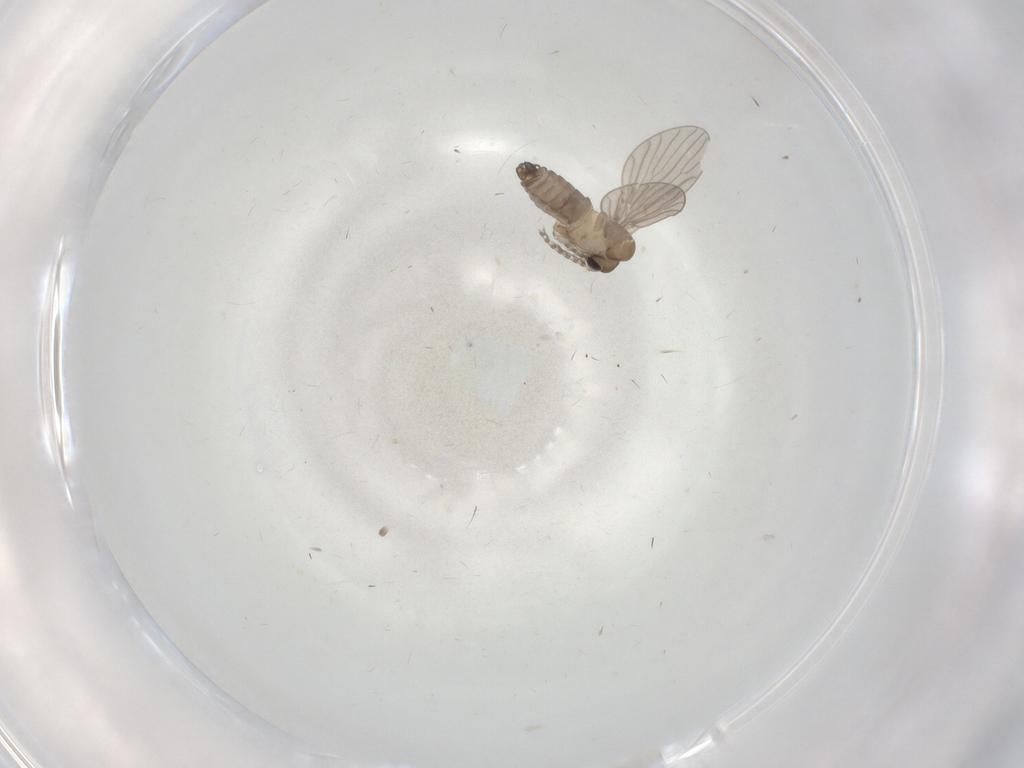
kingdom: Animalia
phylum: Arthropoda
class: Insecta
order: Diptera
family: Psychodidae
